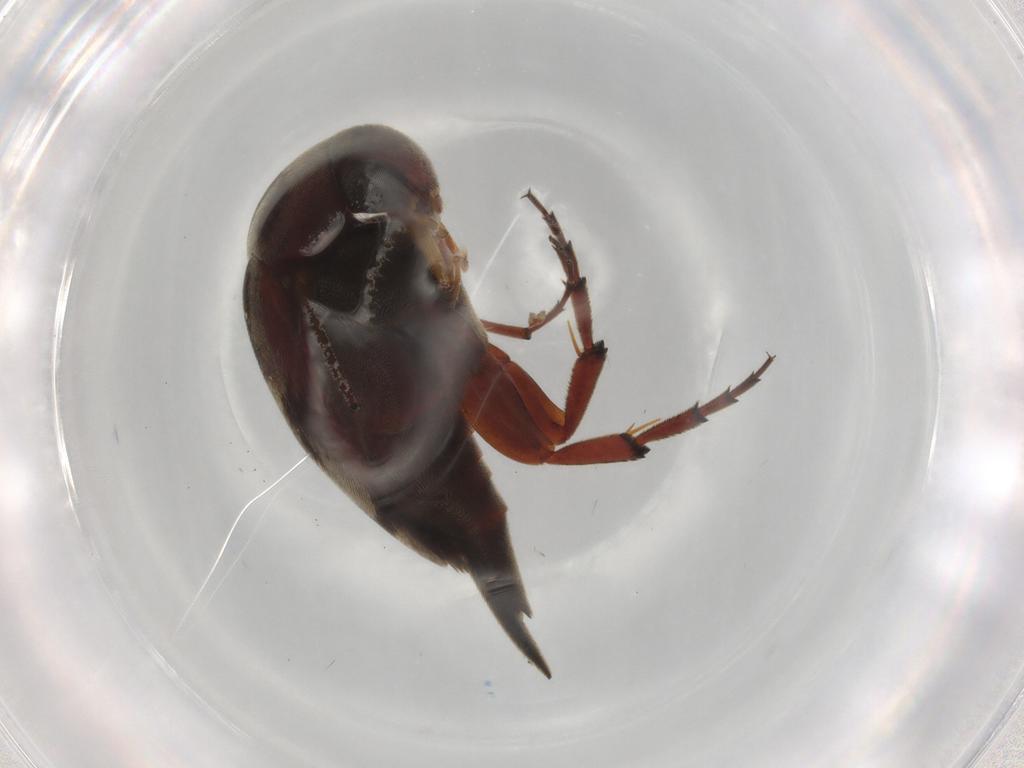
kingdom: Animalia
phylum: Arthropoda
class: Insecta
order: Coleoptera
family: Mordellidae
